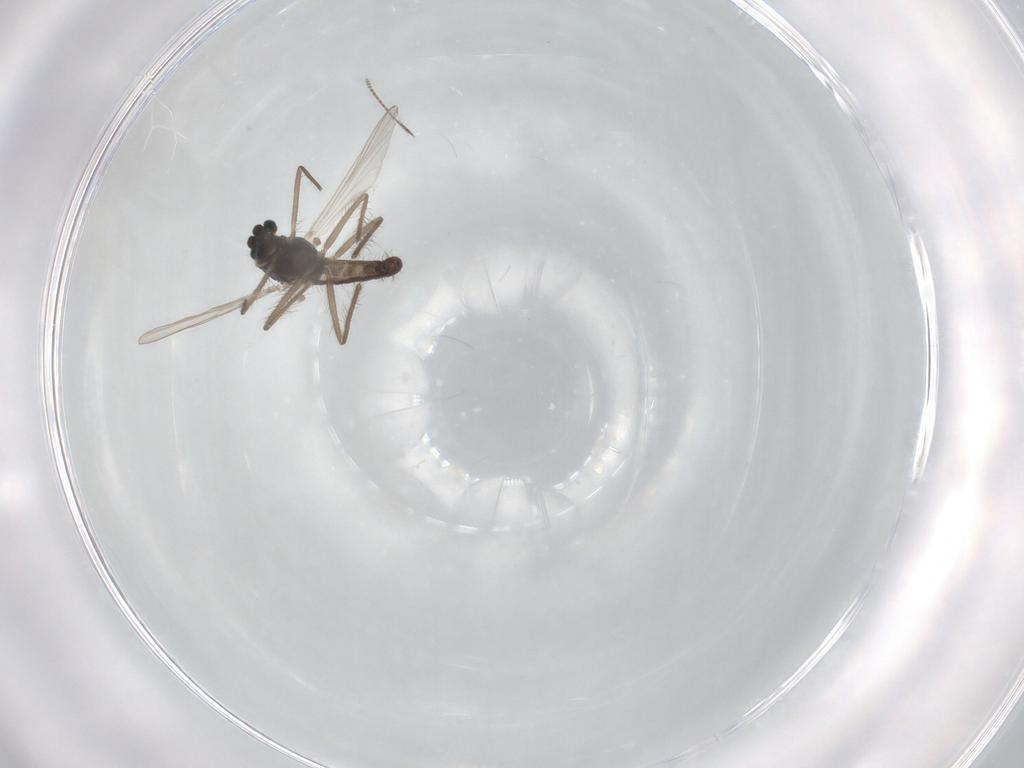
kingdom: Animalia
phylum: Arthropoda
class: Insecta
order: Diptera
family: Chironomidae
